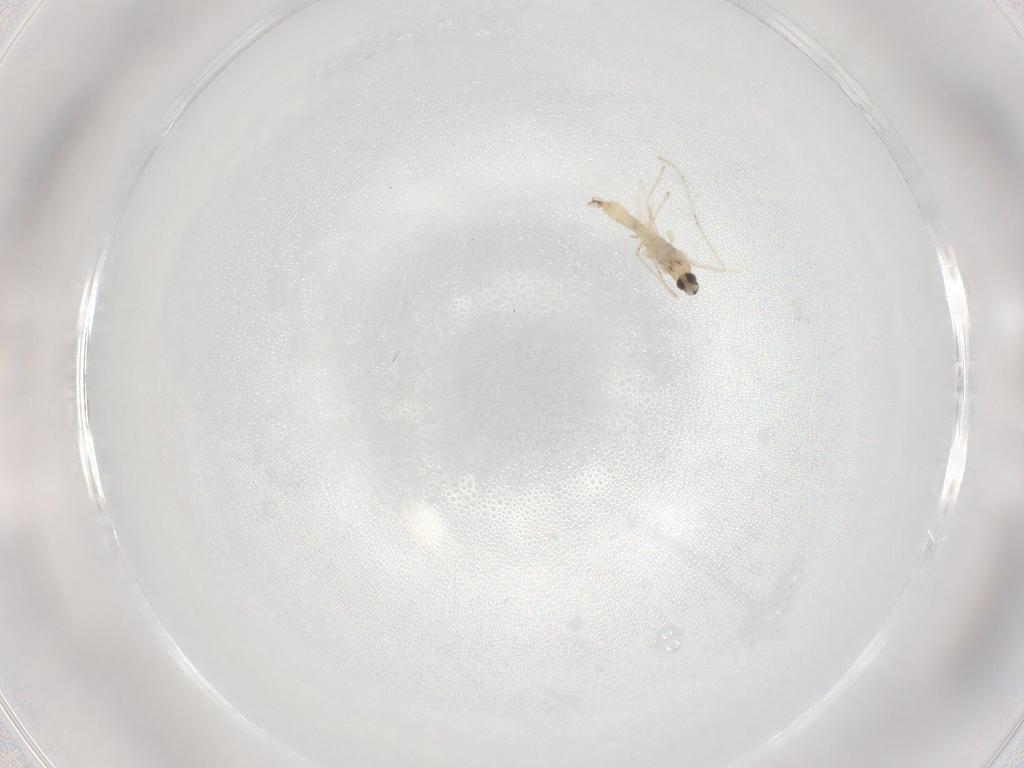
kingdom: Animalia
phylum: Arthropoda
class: Insecta
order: Diptera
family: Cecidomyiidae
